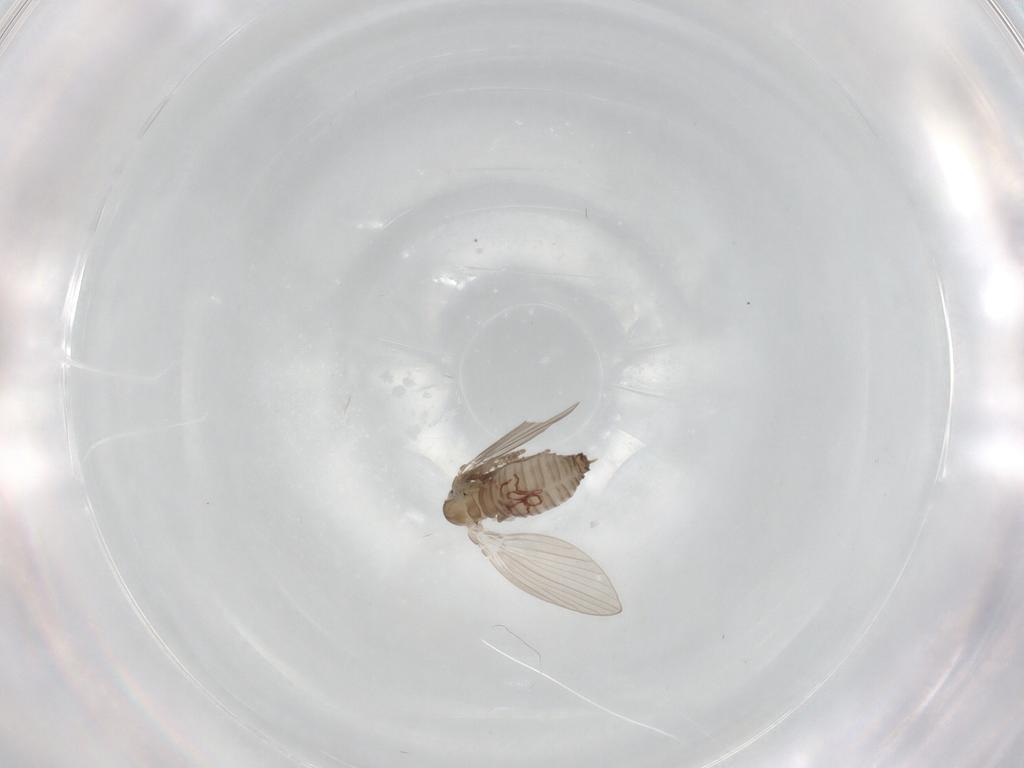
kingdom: Animalia
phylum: Arthropoda
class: Insecta
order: Diptera
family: Psychodidae
